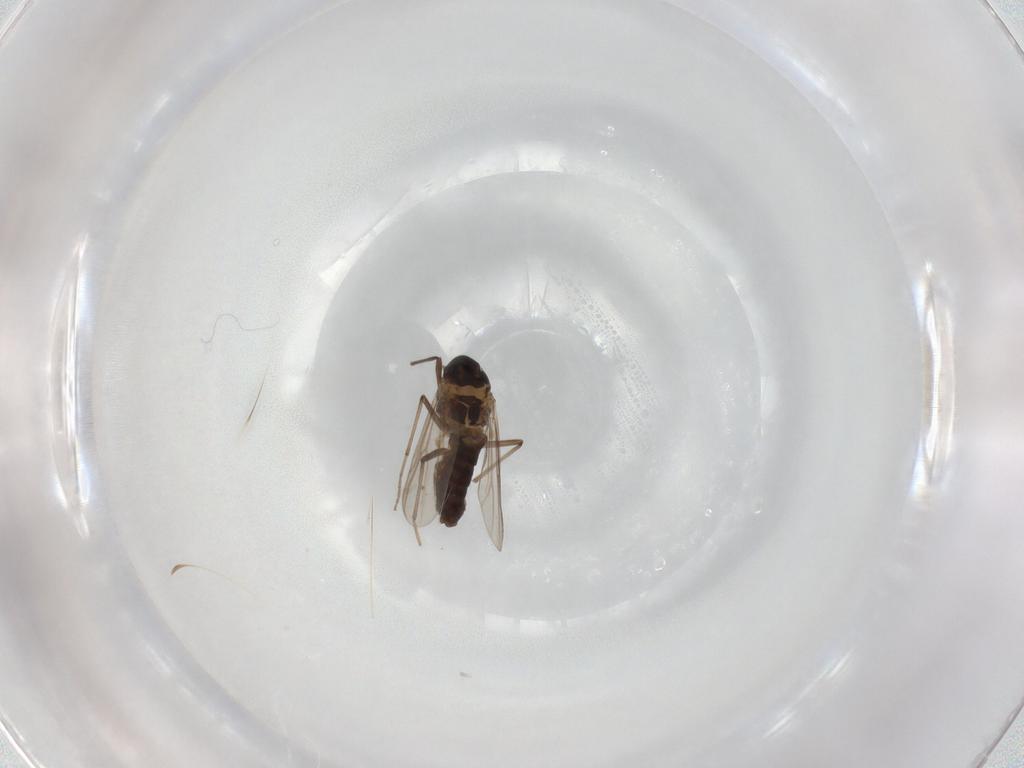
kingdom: Animalia
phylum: Arthropoda
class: Insecta
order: Diptera
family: Chironomidae
